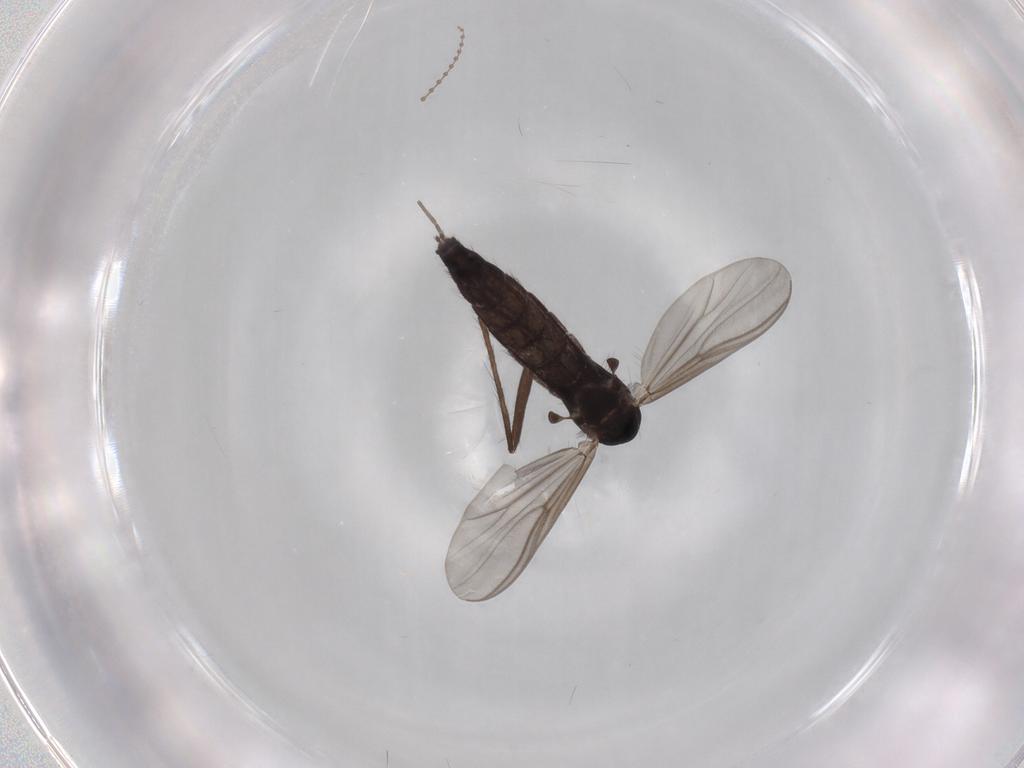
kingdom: Animalia
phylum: Arthropoda
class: Insecta
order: Diptera
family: Chironomidae
